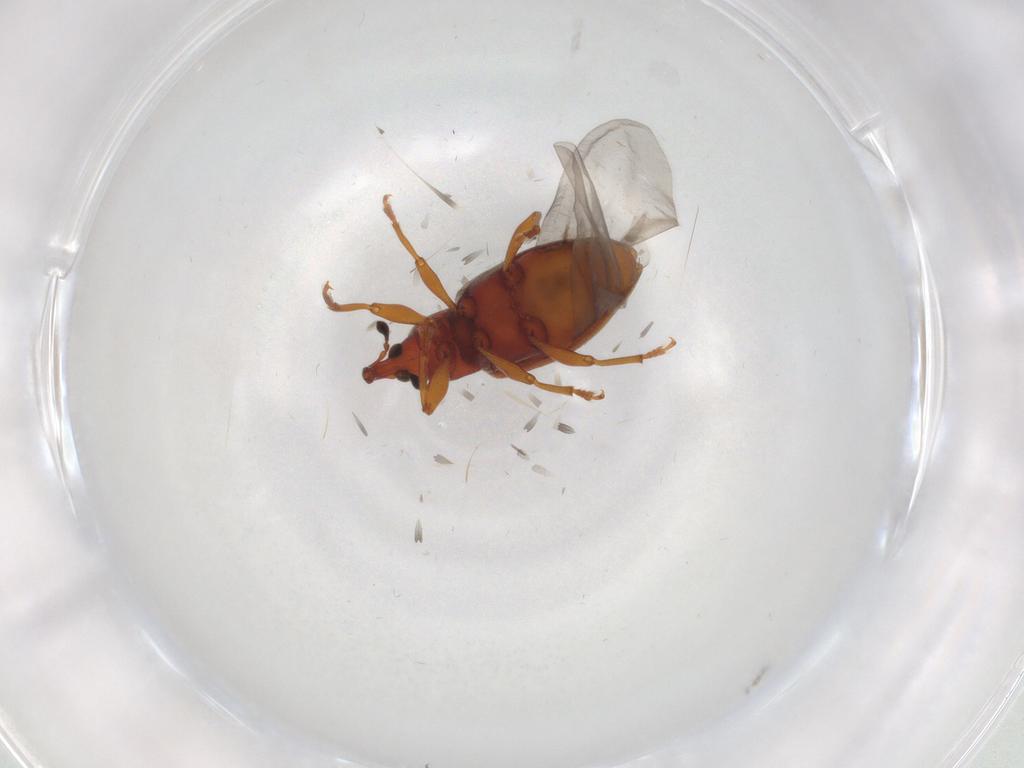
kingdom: Animalia
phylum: Arthropoda
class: Insecta
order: Coleoptera
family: Curculionidae
